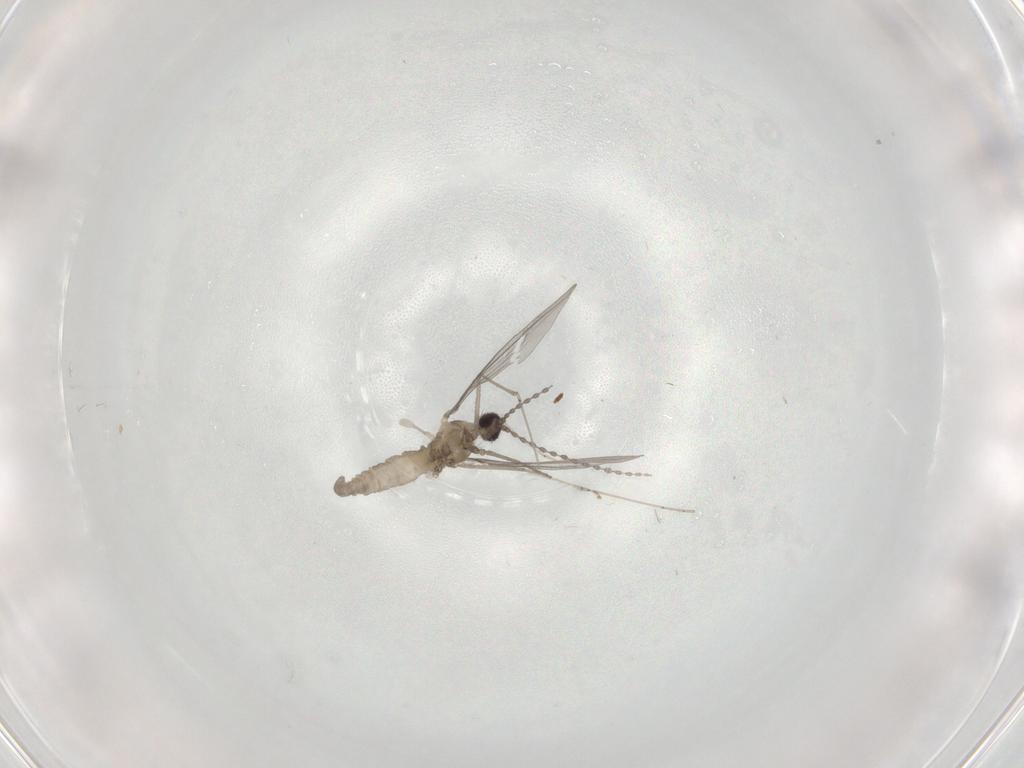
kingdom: Animalia
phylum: Arthropoda
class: Insecta
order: Diptera
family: Cecidomyiidae
